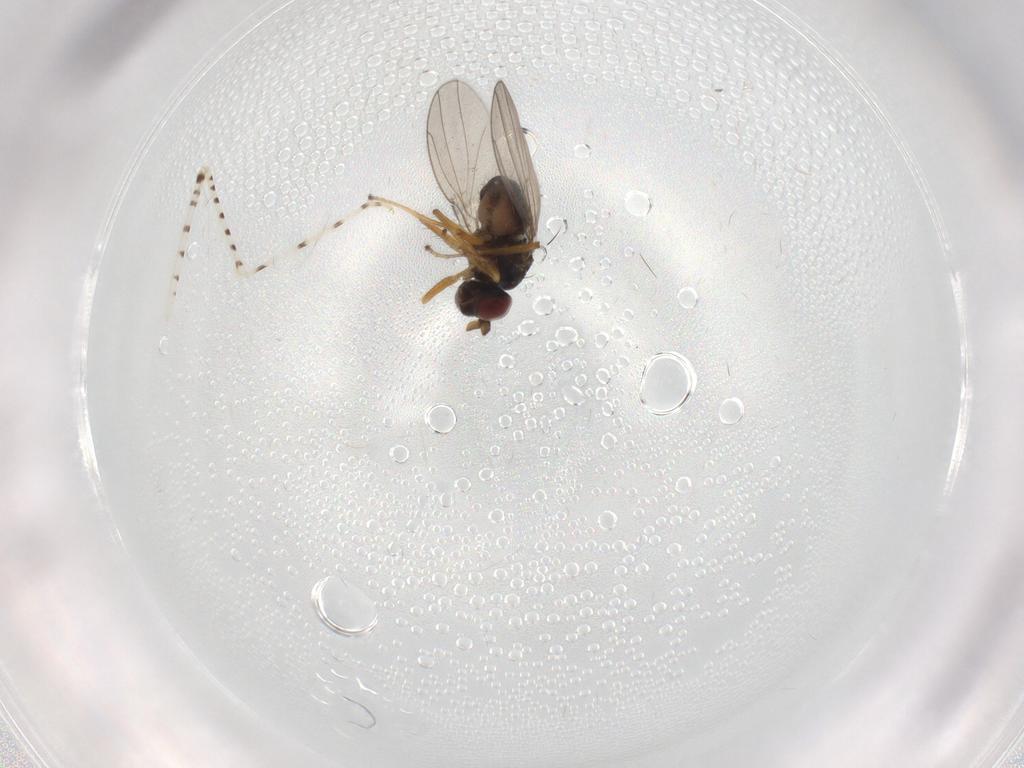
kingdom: Animalia
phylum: Arthropoda
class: Insecta
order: Diptera
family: Ephydridae
